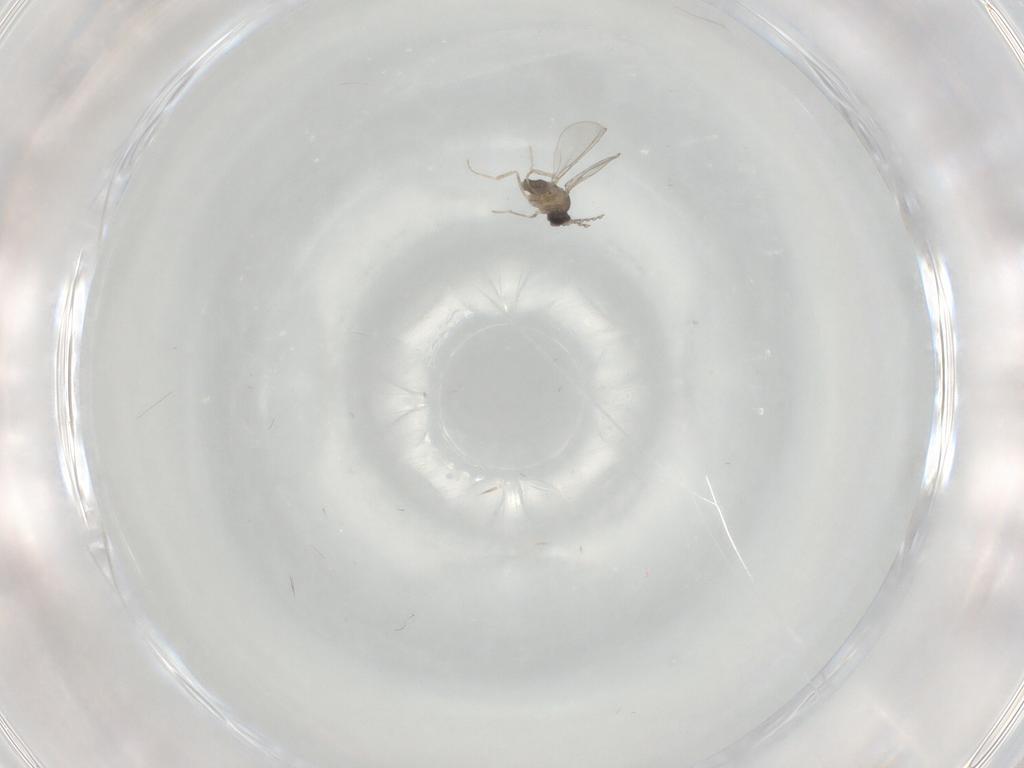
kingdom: Animalia
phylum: Arthropoda
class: Insecta
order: Diptera
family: Cecidomyiidae
